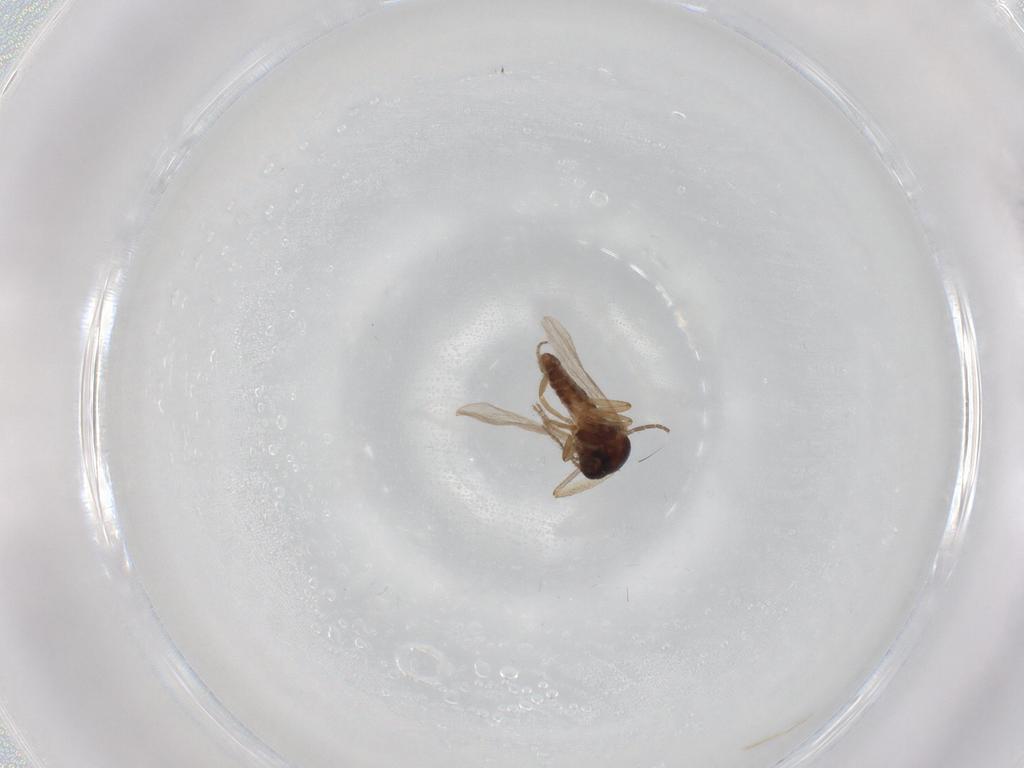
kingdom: Animalia
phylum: Arthropoda
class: Insecta
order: Diptera
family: Ceratopogonidae
